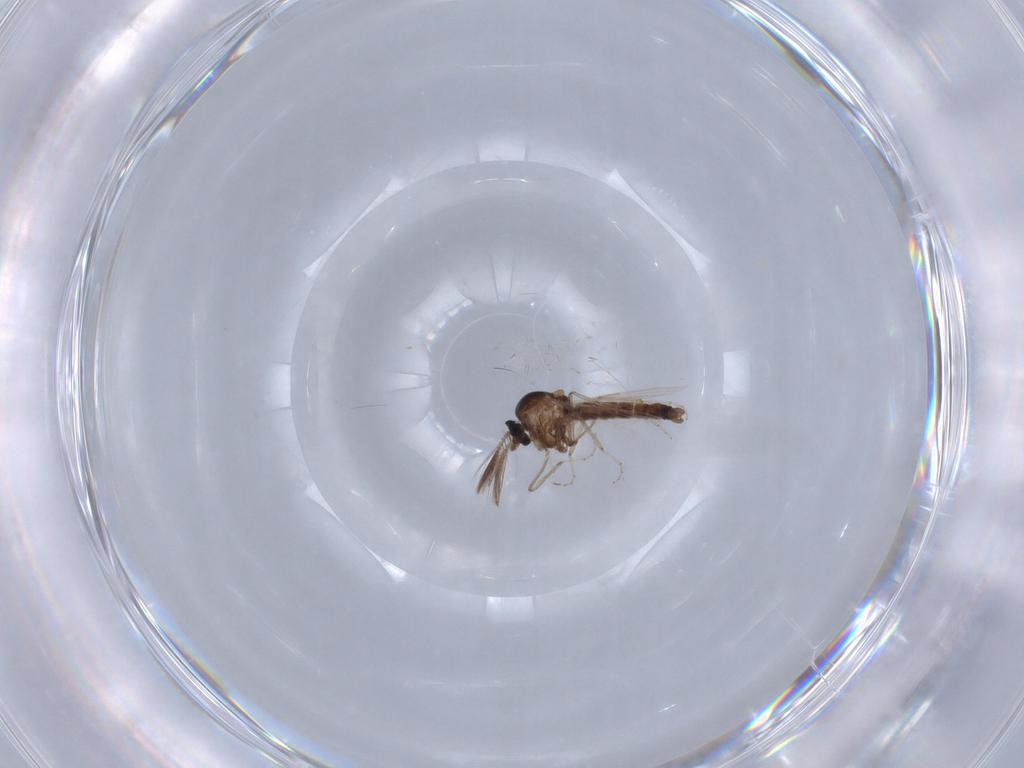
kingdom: Animalia
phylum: Arthropoda
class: Insecta
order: Diptera
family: Ceratopogonidae
